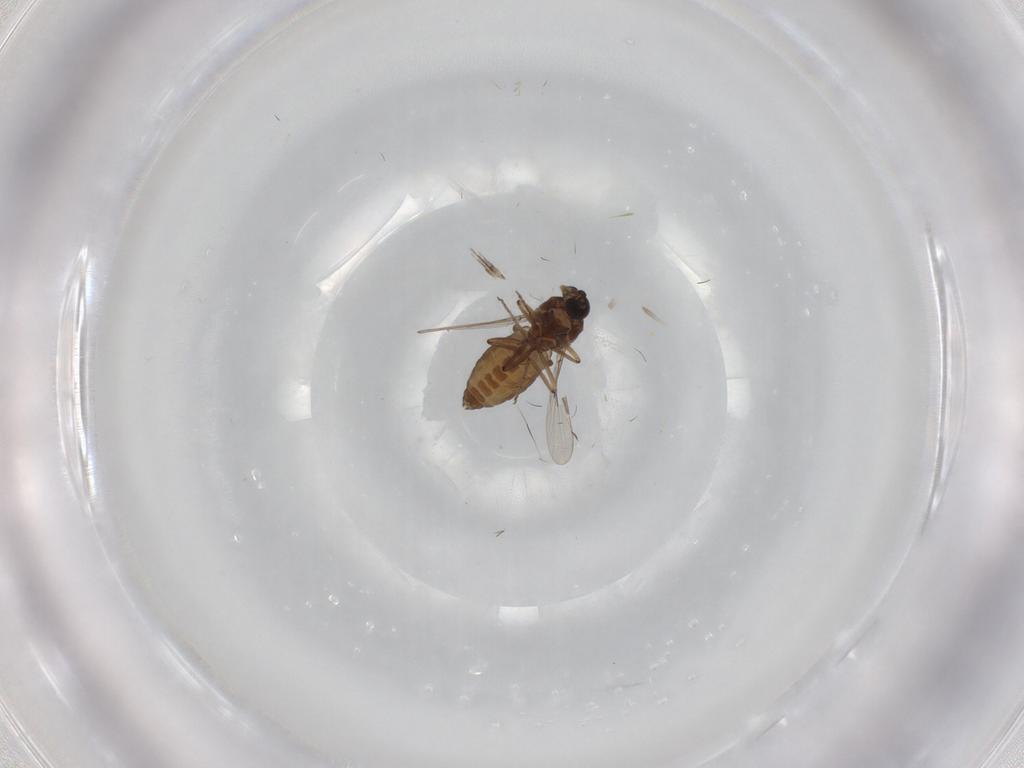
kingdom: Animalia
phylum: Arthropoda
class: Insecta
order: Diptera
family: Ceratopogonidae
